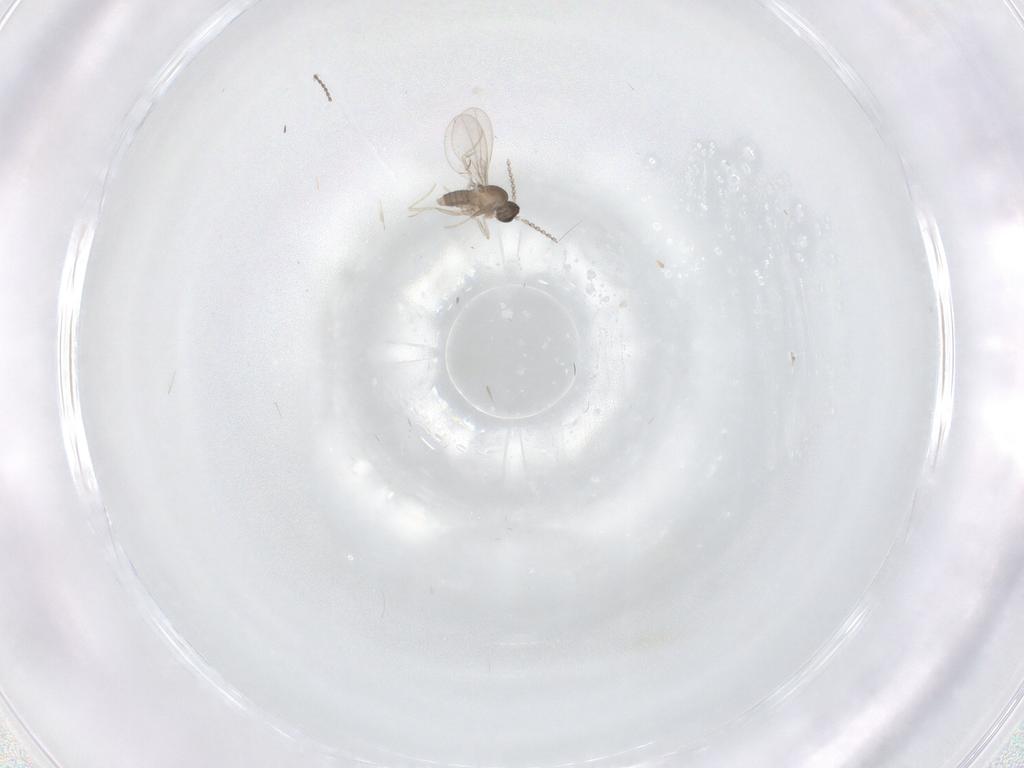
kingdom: Animalia
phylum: Arthropoda
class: Insecta
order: Diptera
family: Cecidomyiidae
